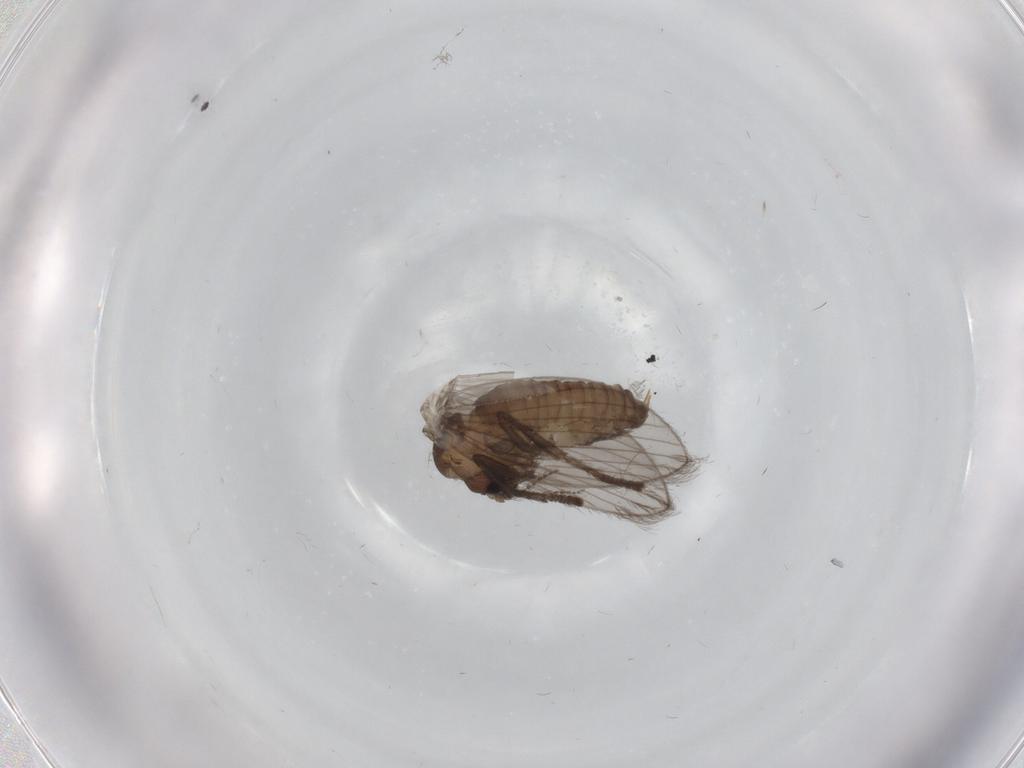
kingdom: Animalia
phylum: Arthropoda
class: Insecta
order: Diptera
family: Psychodidae
